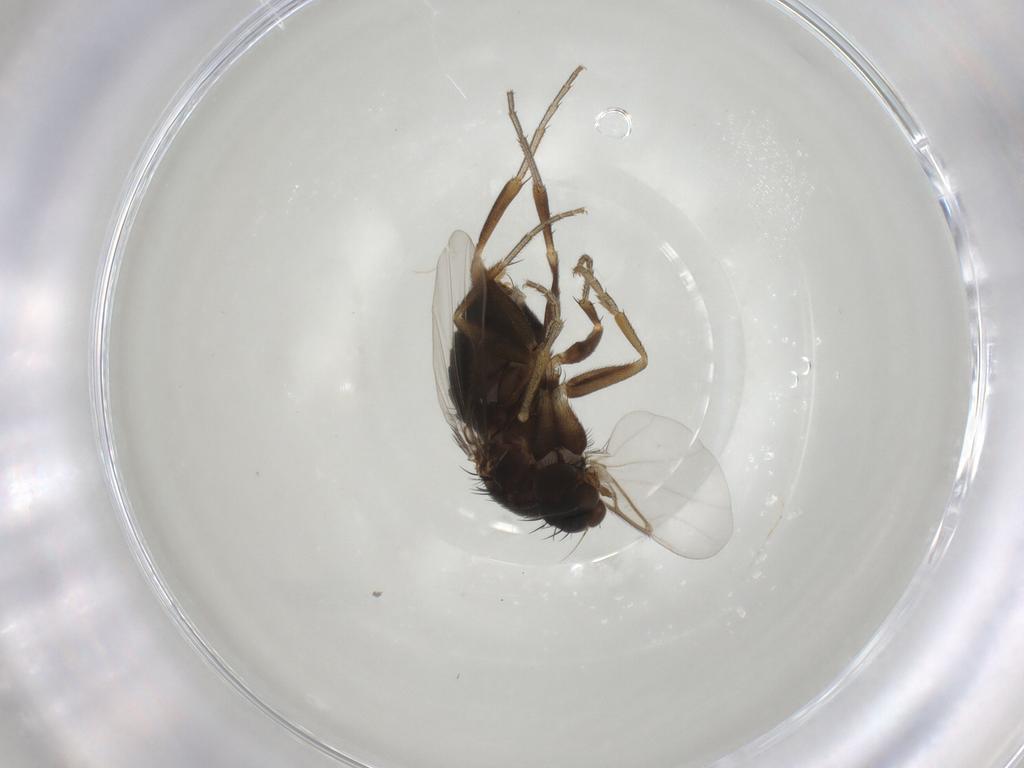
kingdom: Animalia
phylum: Arthropoda
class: Insecta
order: Diptera
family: Phoridae
